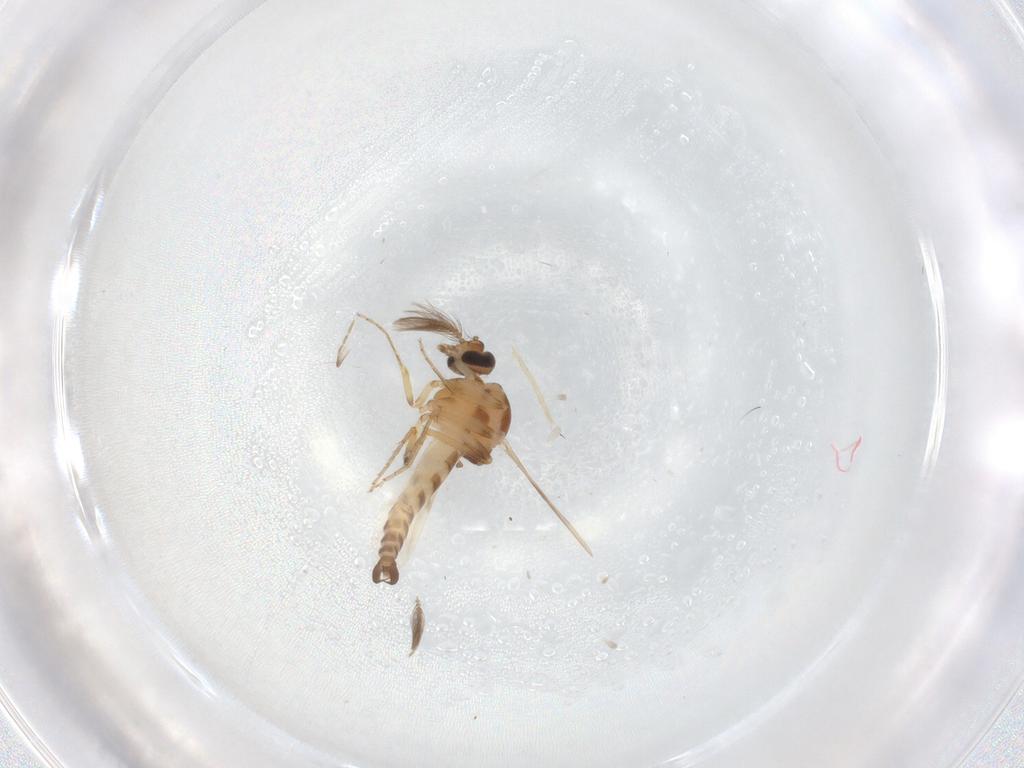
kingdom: Animalia
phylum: Arthropoda
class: Insecta
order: Diptera
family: Ceratopogonidae
